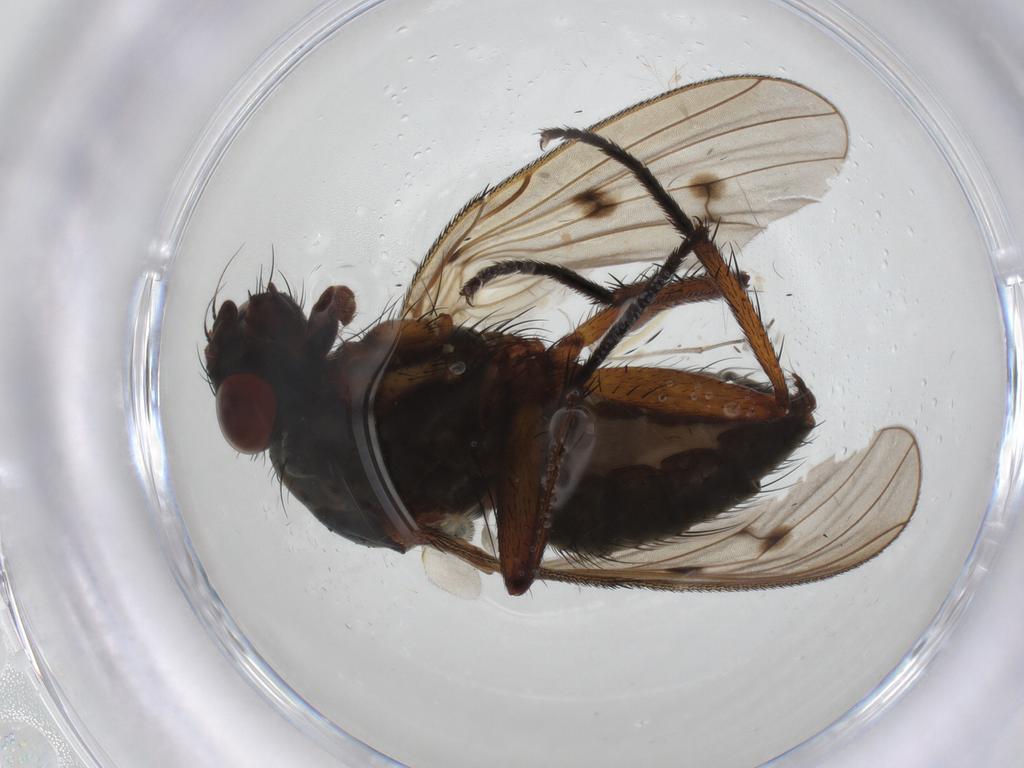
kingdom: Animalia
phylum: Arthropoda
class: Insecta
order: Diptera
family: Anthomyiidae
